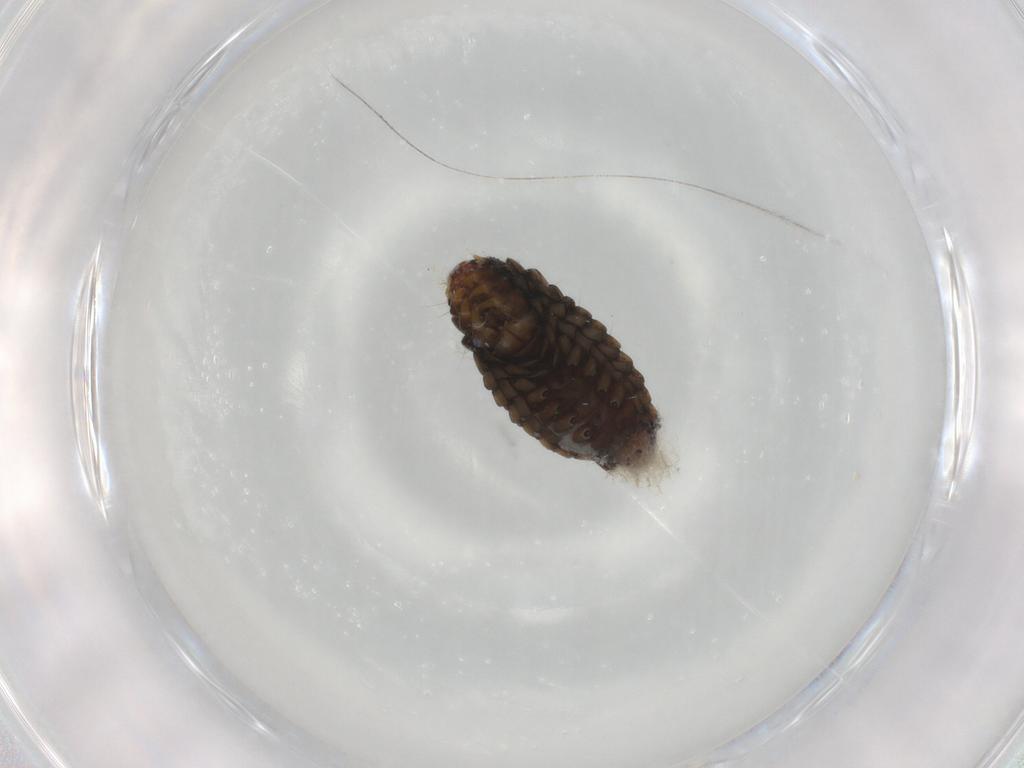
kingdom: Animalia
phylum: Arthropoda
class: Insecta
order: Lepidoptera
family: Psychidae
